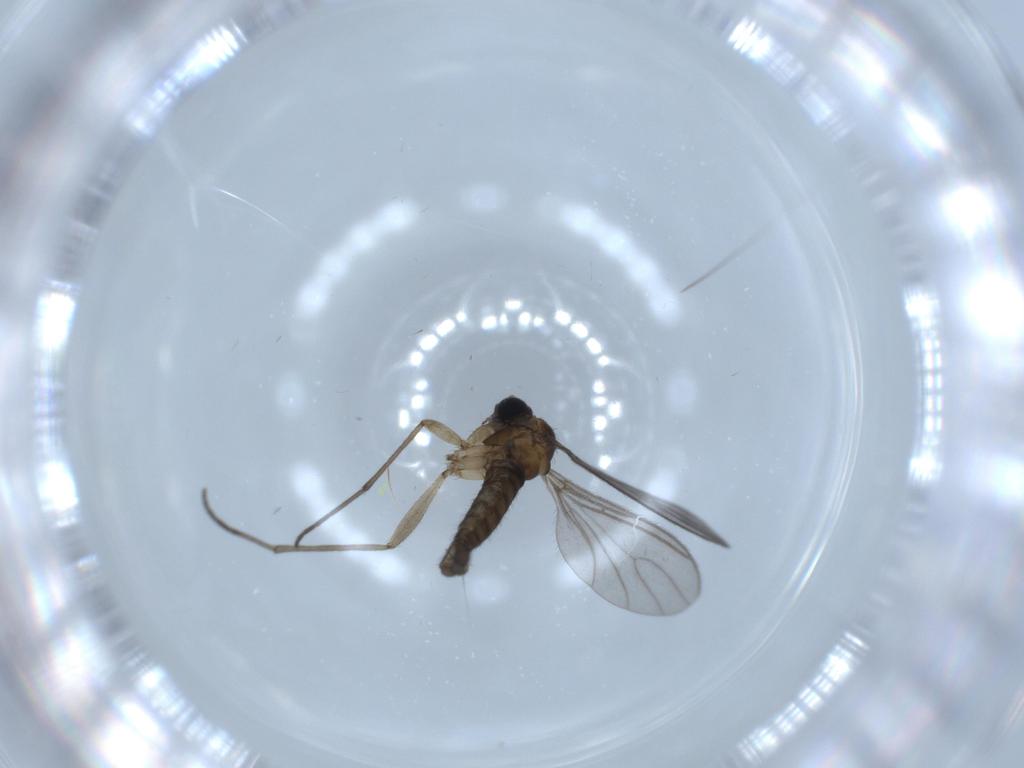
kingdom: Animalia
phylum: Arthropoda
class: Insecta
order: Diptera
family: Sciaridae
